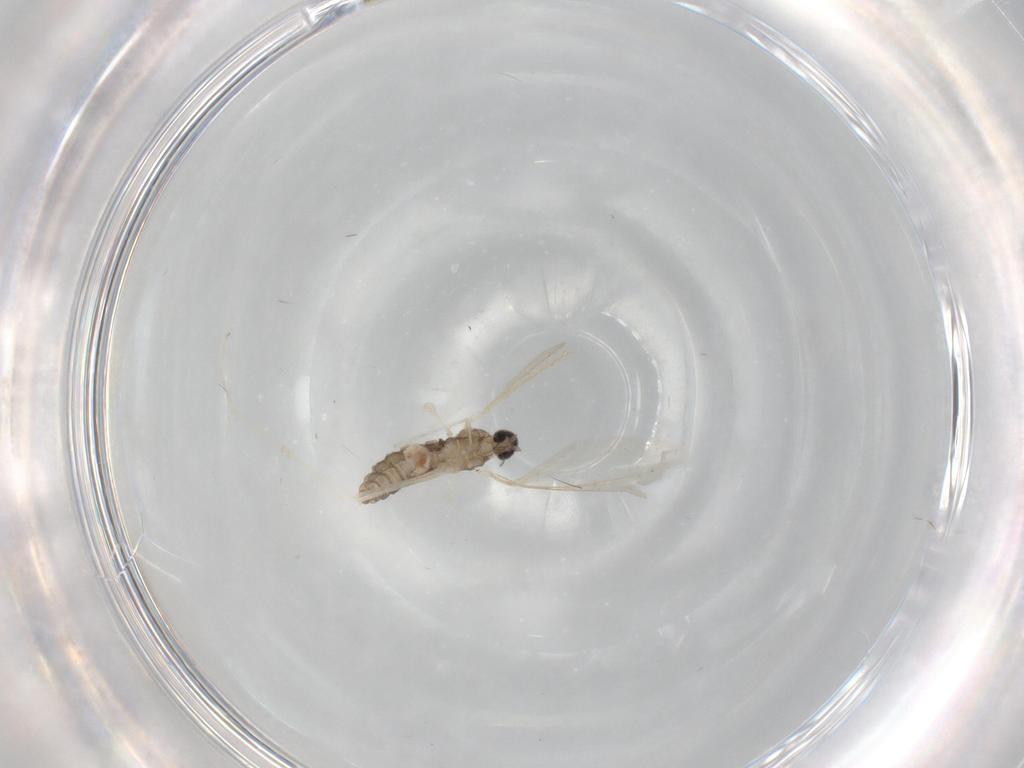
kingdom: Animalia
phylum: Arthropoda
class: Insecta
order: Diptera
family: Cecidomyiidae
